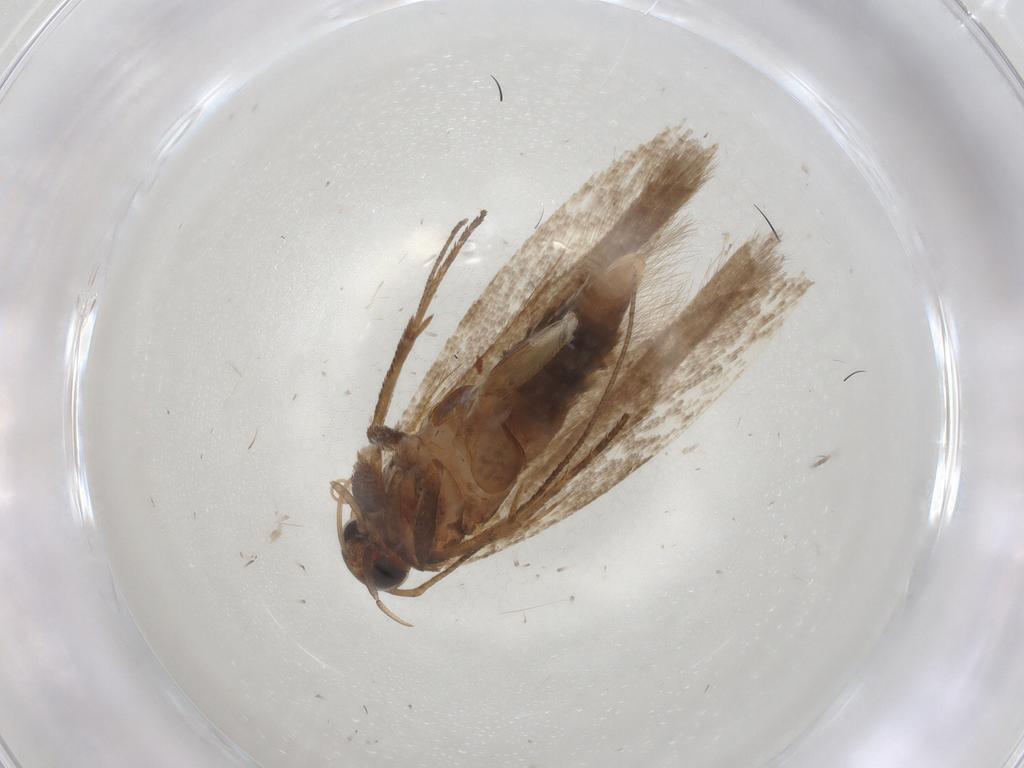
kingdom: Animalia
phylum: Arthropoda
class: Insecta
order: Lepidoptera
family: Gelechiidae
